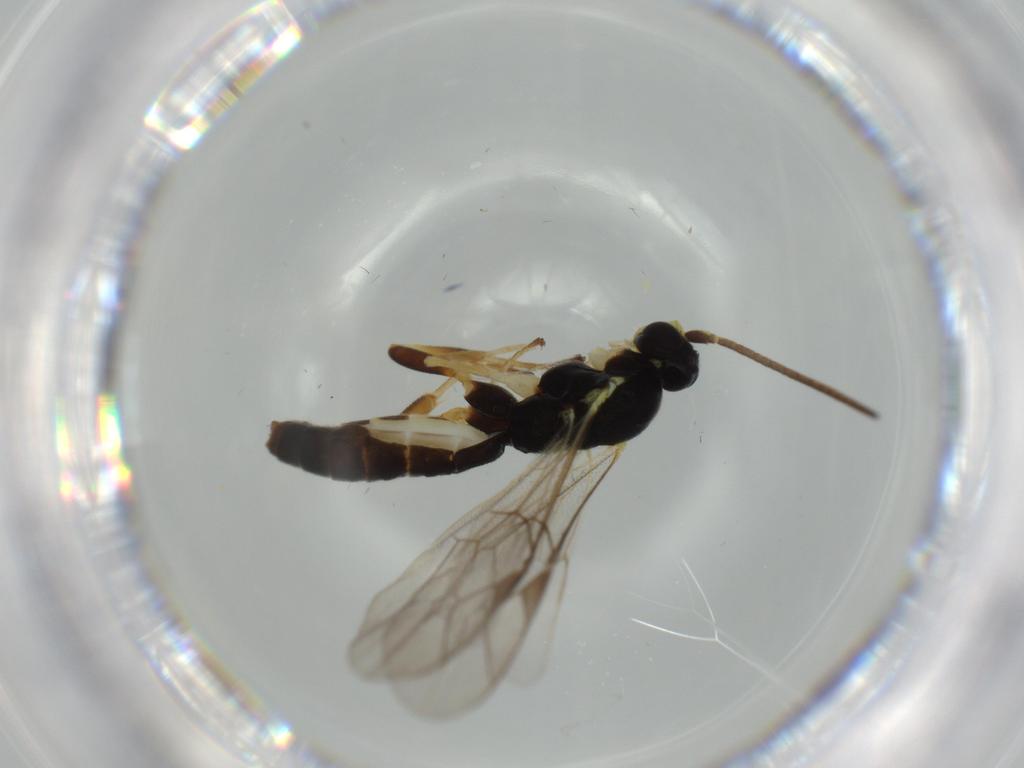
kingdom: Animalia
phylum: Arthropoda
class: Insecta
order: Hymenoptera
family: Ichneumonidae
